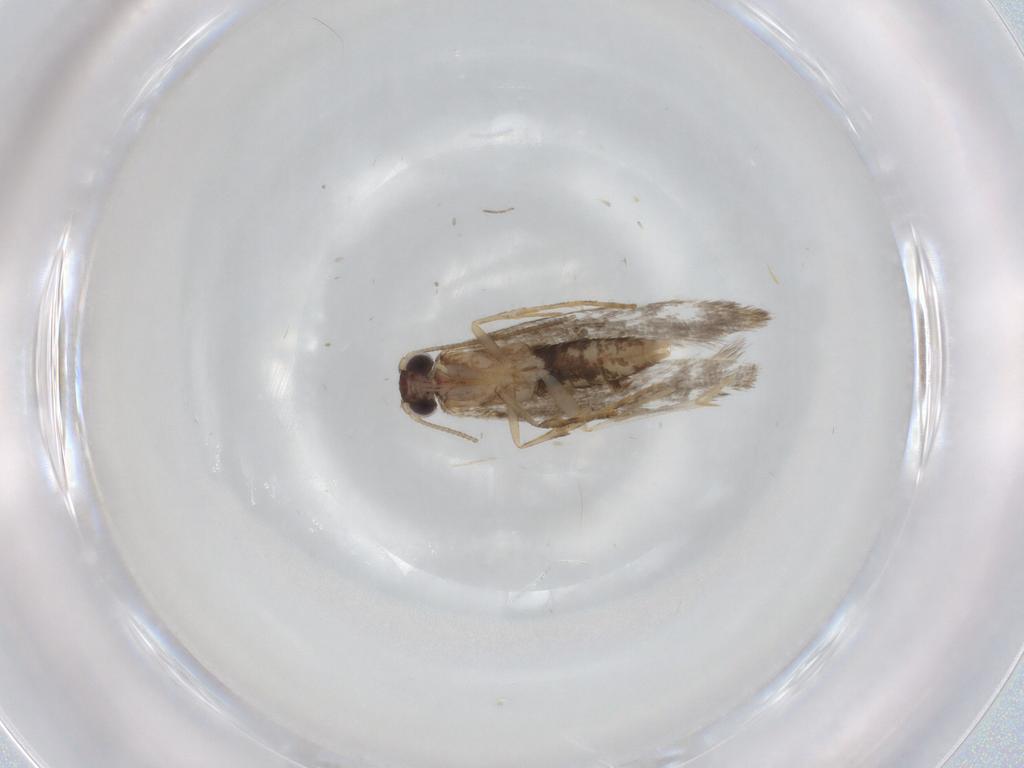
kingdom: Animalia
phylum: Arthropoda
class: Insecta
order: Lepidoptera
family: Tineidae
